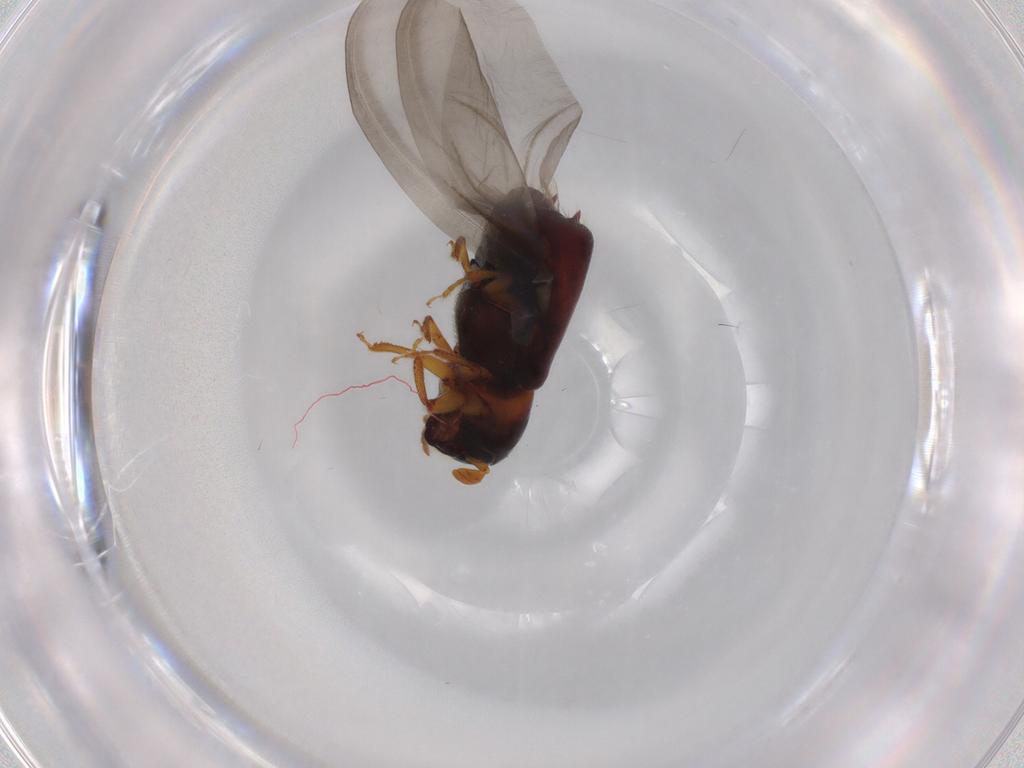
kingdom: Animalia
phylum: Arthropoda
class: Insecta
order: Coleoptera
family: Curculionidae
